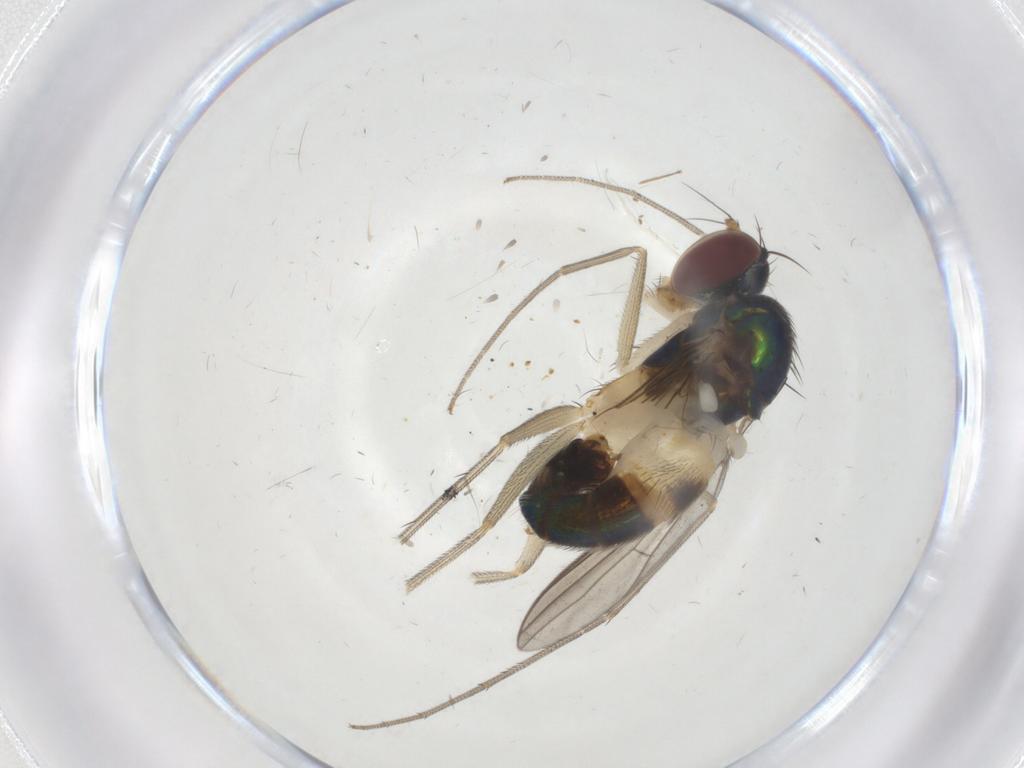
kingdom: Animalia
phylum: Arthropoda
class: Insecta
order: Diptera
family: Dolichopodidae
